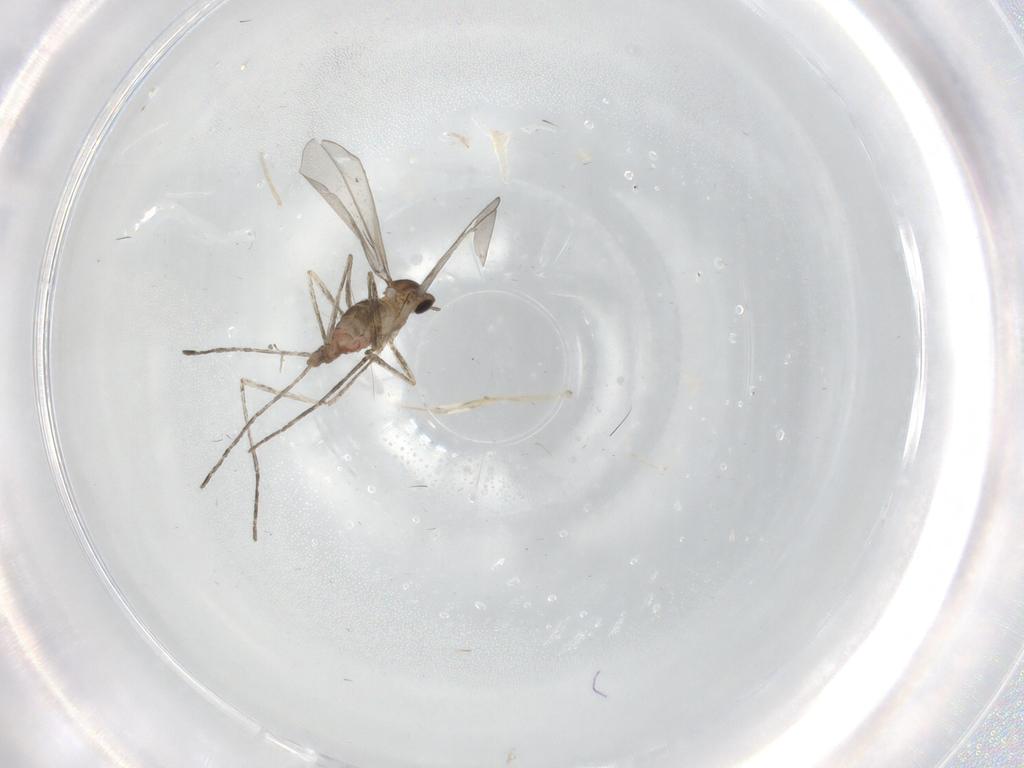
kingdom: Animalia
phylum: Arthropoda
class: Insecta
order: Diptera
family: Cecidomyiidae
